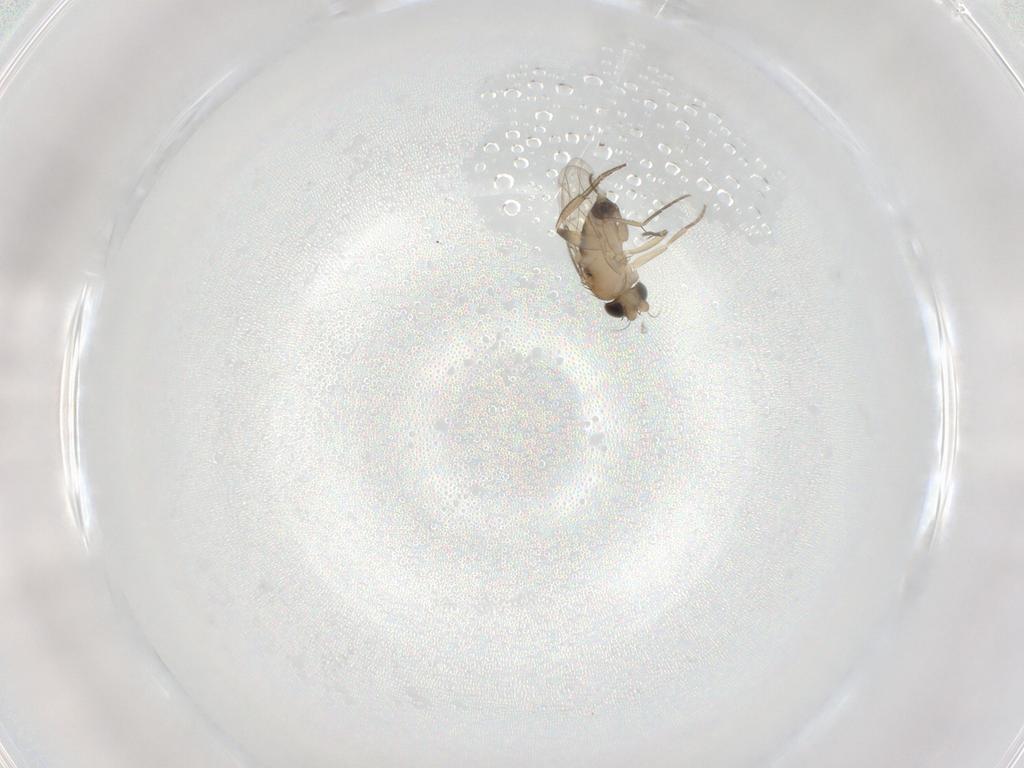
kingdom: Animalia
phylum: Arthropoda
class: Insecta
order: Diptera
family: Phoridae
